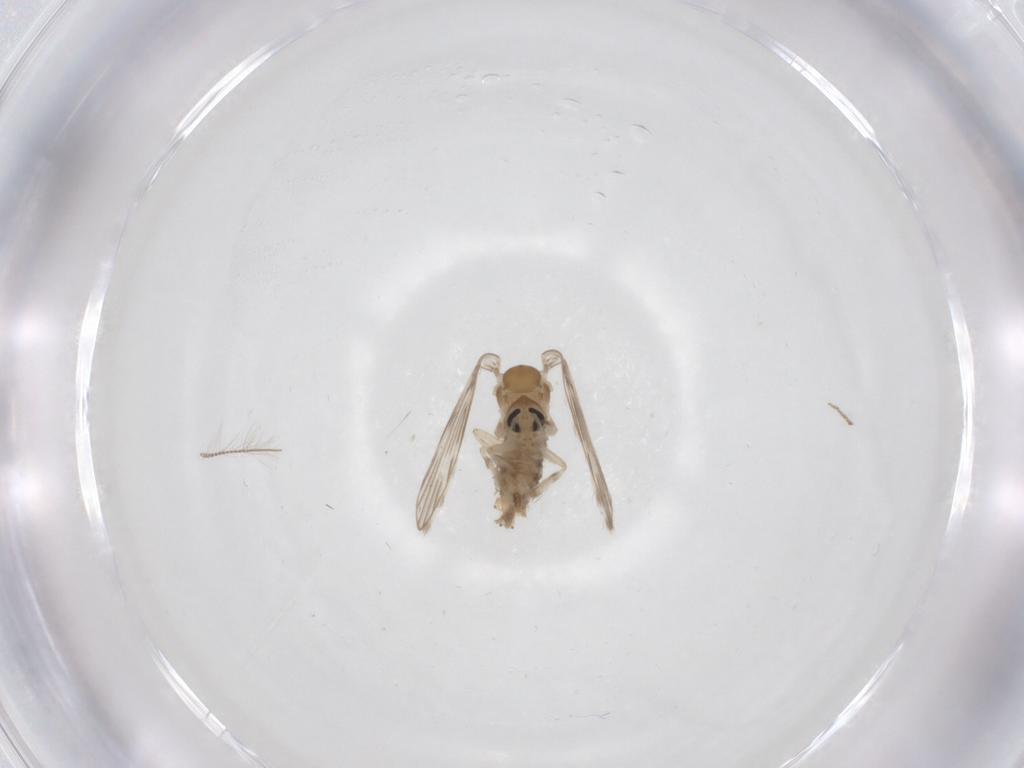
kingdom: Animalia
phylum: Arthropoda
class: Insecta
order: Diptera
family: Psychodidae
